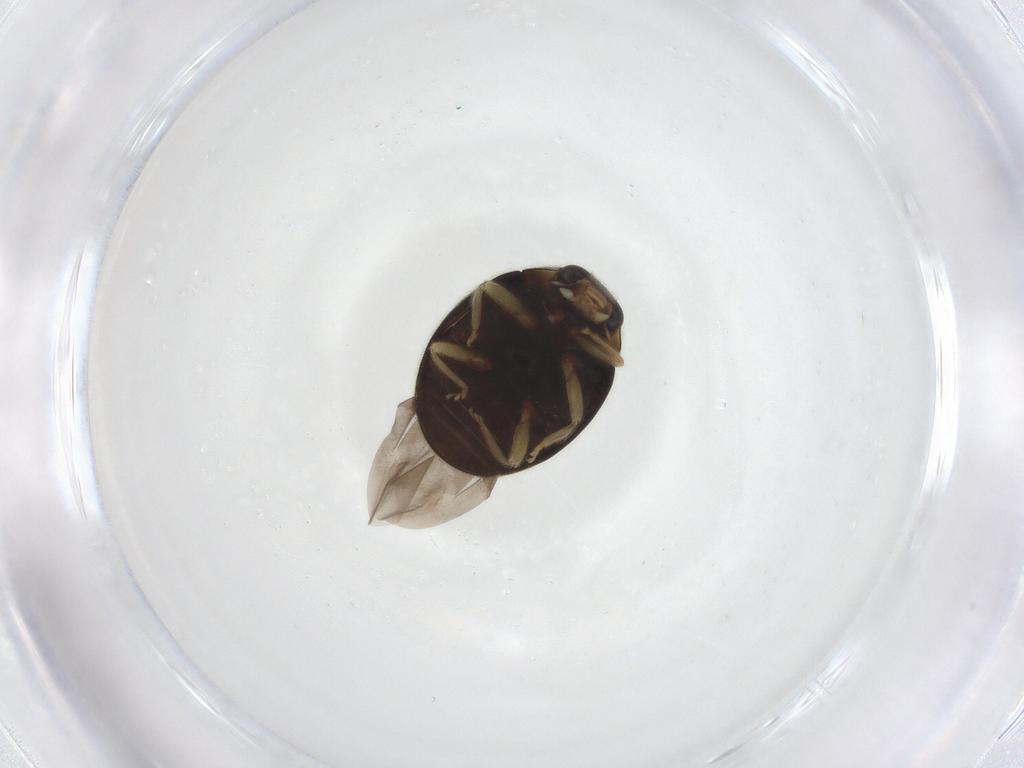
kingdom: Animalia
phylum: Arthropoda
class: Insecta
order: Coleoptera
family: Coccinellidae
